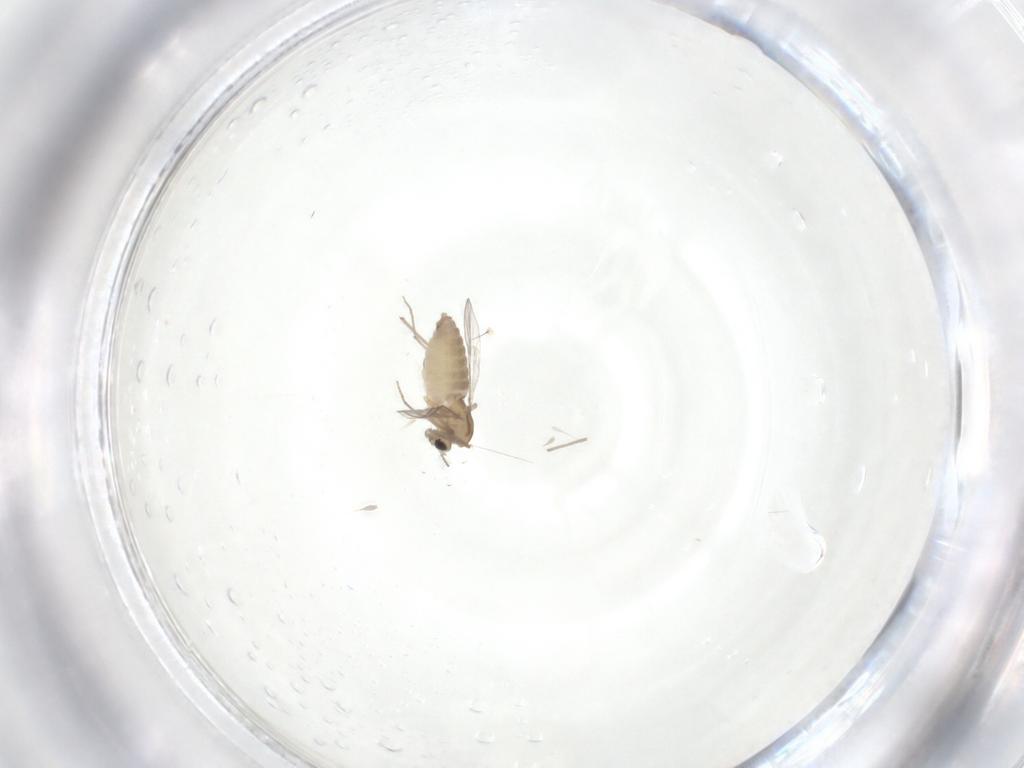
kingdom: Animalia
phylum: Arthropoda
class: Insecta
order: Diptera
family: Chironomidae
